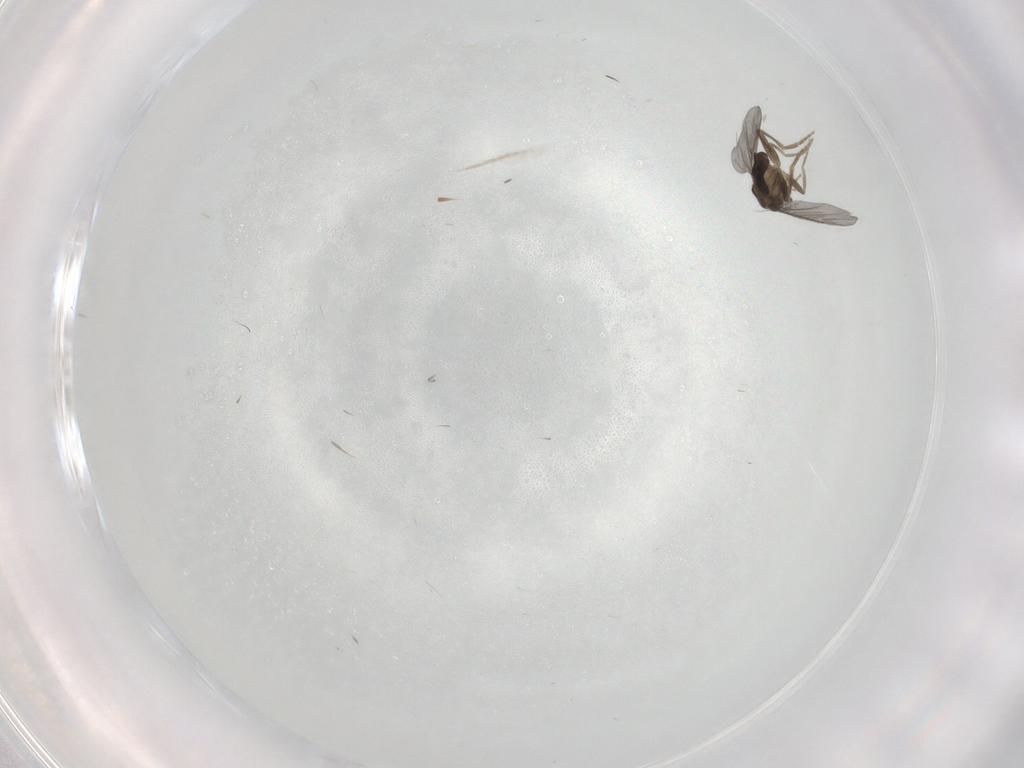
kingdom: Animalia
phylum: Arthropoda
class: Insecta
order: Diptera
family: Cecidomyiidae
